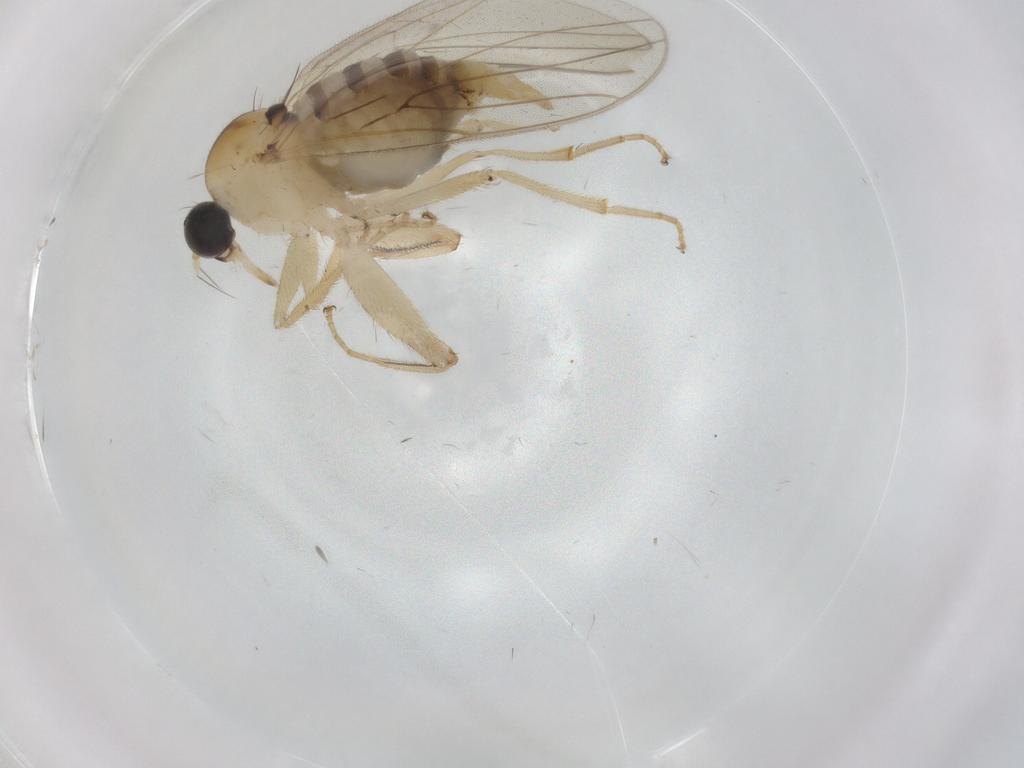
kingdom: Animalia
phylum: Arthropoda
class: Insecta
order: Diptera
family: Hybotidae
